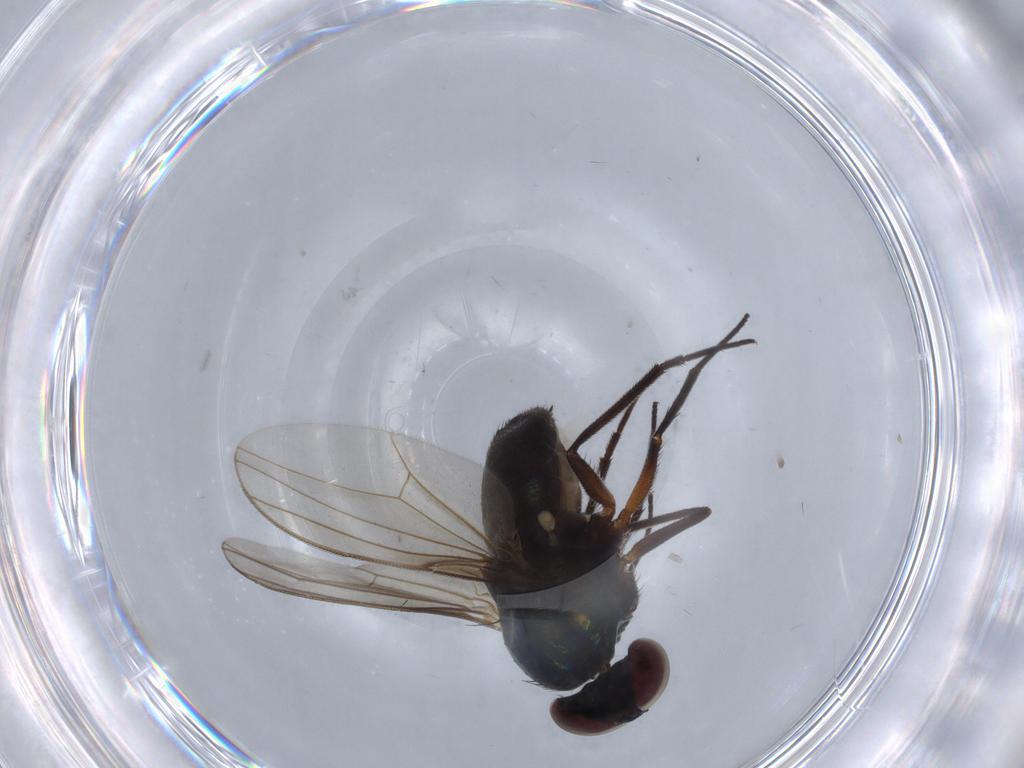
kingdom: Animalia
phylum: Arthropoda
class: Insecta
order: Diptera
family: Dolichopodidae
